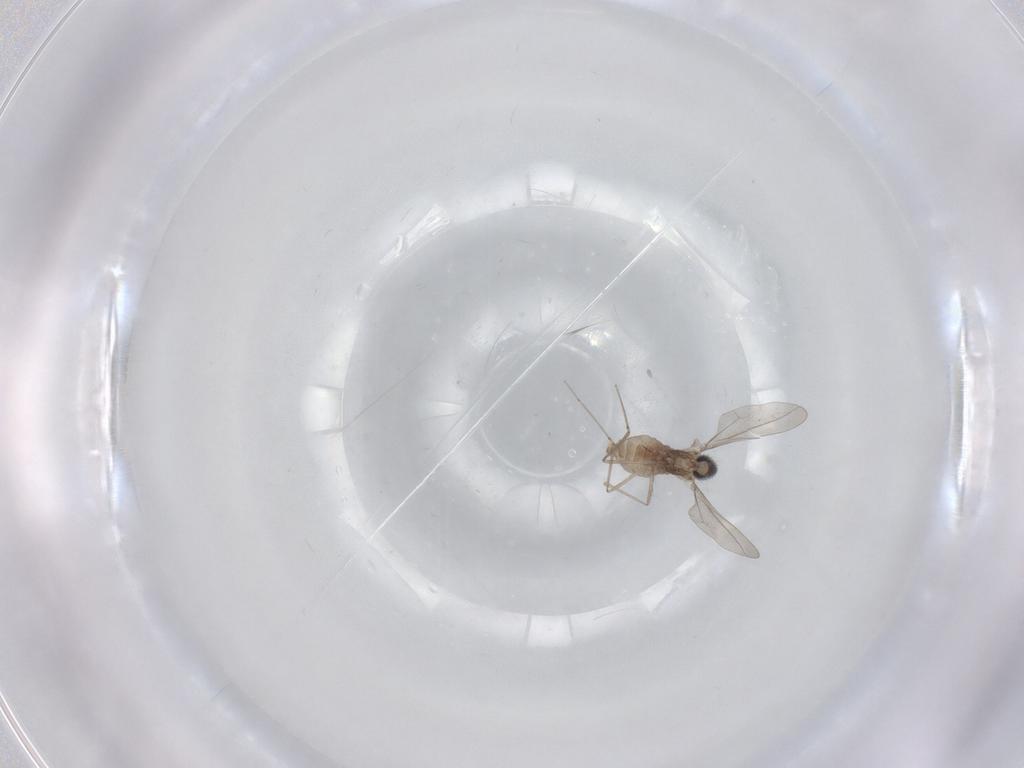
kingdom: Animalia
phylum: Arthropoda
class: Insecta
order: Diptera
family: Cecidomyiidae
